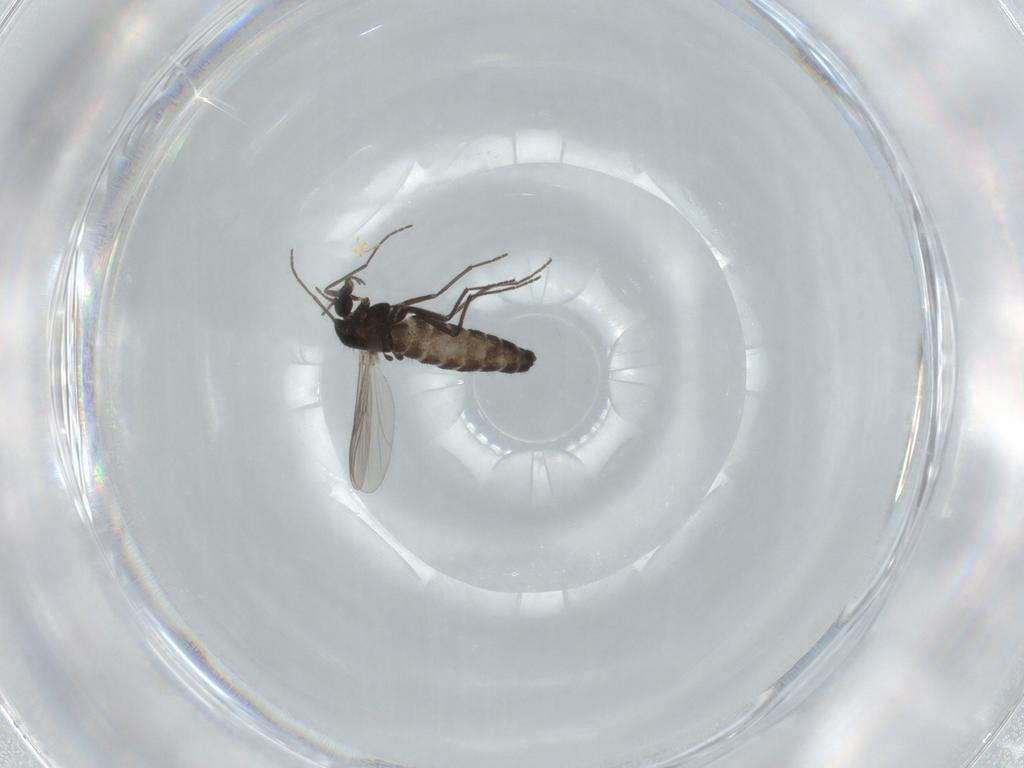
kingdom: Animalia
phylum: Arthropoda
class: Insecta
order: Diptera
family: Chironomidae
